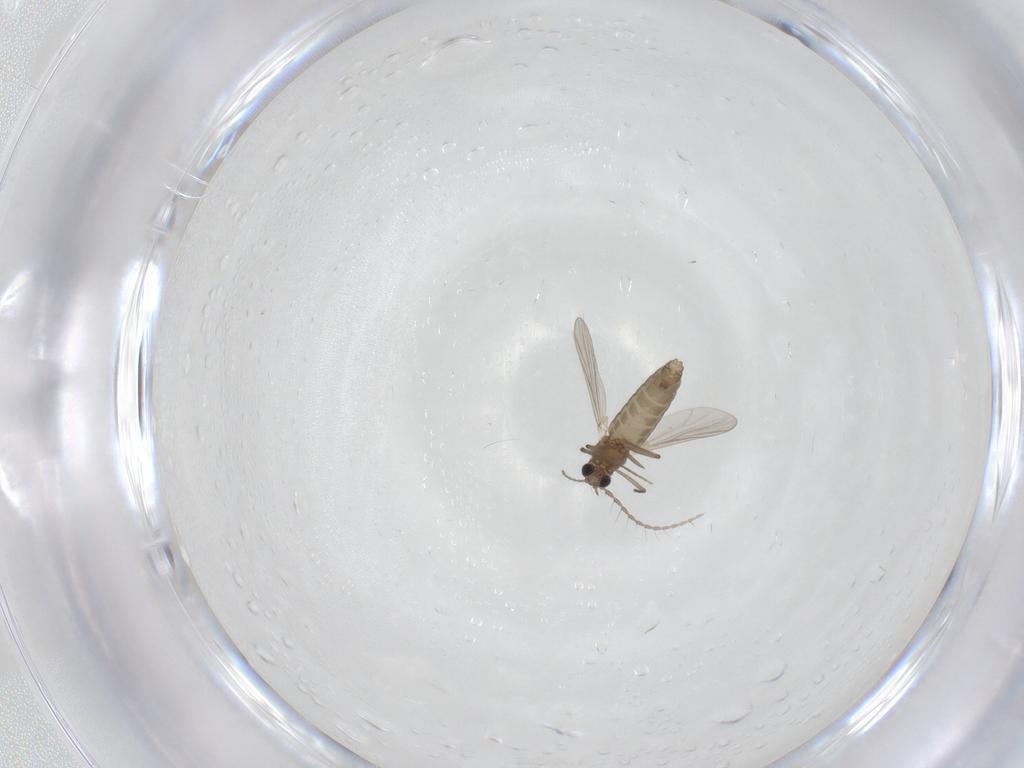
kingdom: Animalia
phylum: Arthropoda
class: Insecta
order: Diptera
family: Chironomidae
